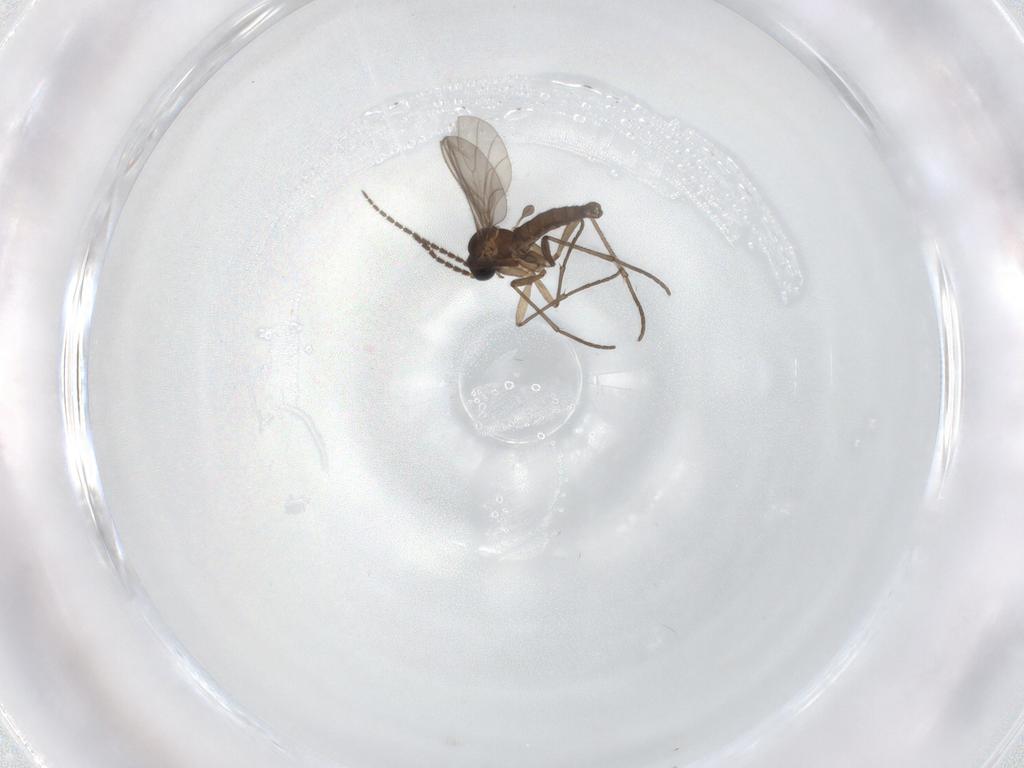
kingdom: Animalia
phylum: Arthropoda
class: Insecta
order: Diptera
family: Sciaridae
